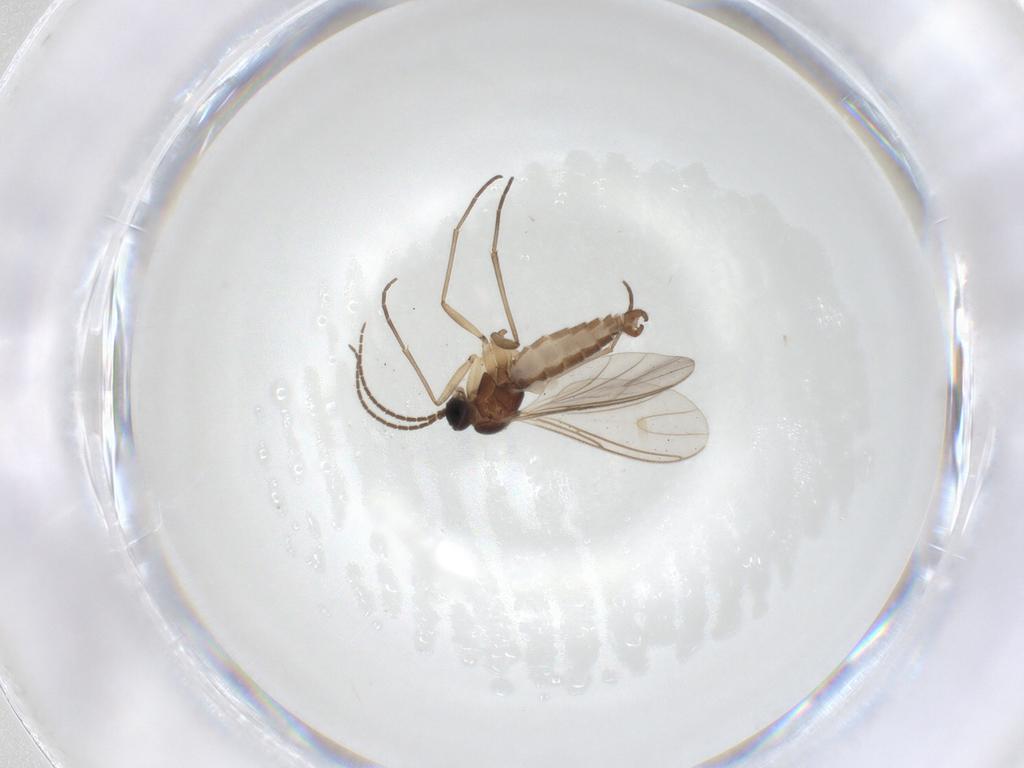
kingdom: Animalia
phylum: Arthropoda
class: Insecta
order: Diptera
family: Sciaridae
